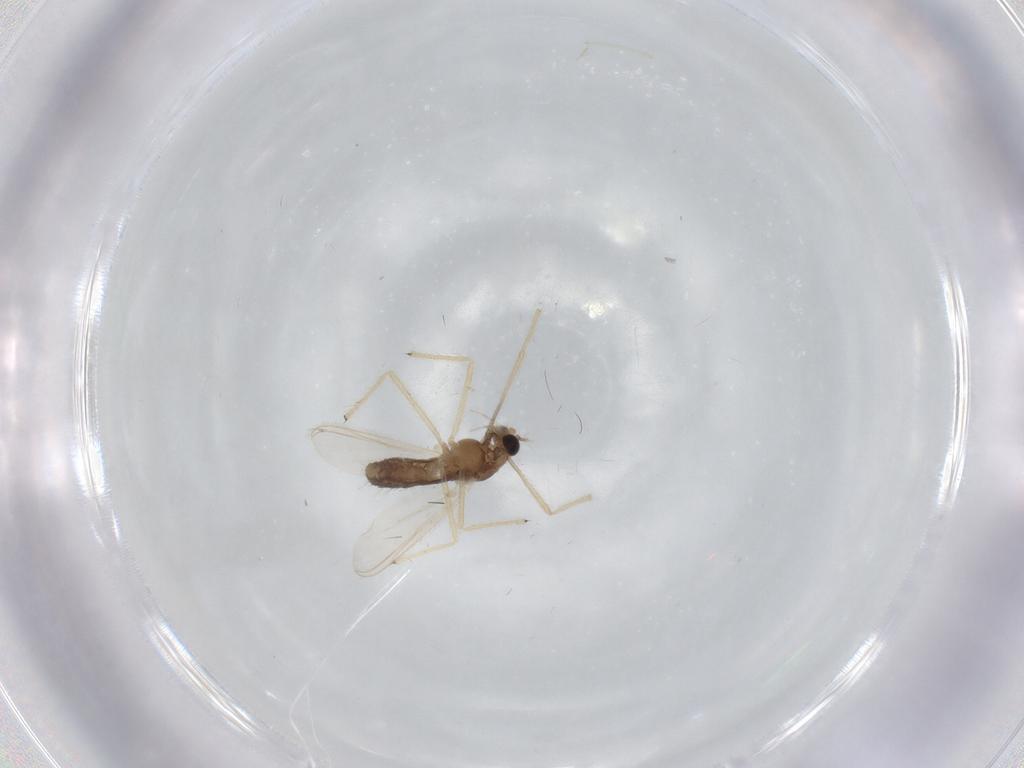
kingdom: Animalia
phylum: Arthropoda
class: Insecta
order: Diptera
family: Chironomidae
